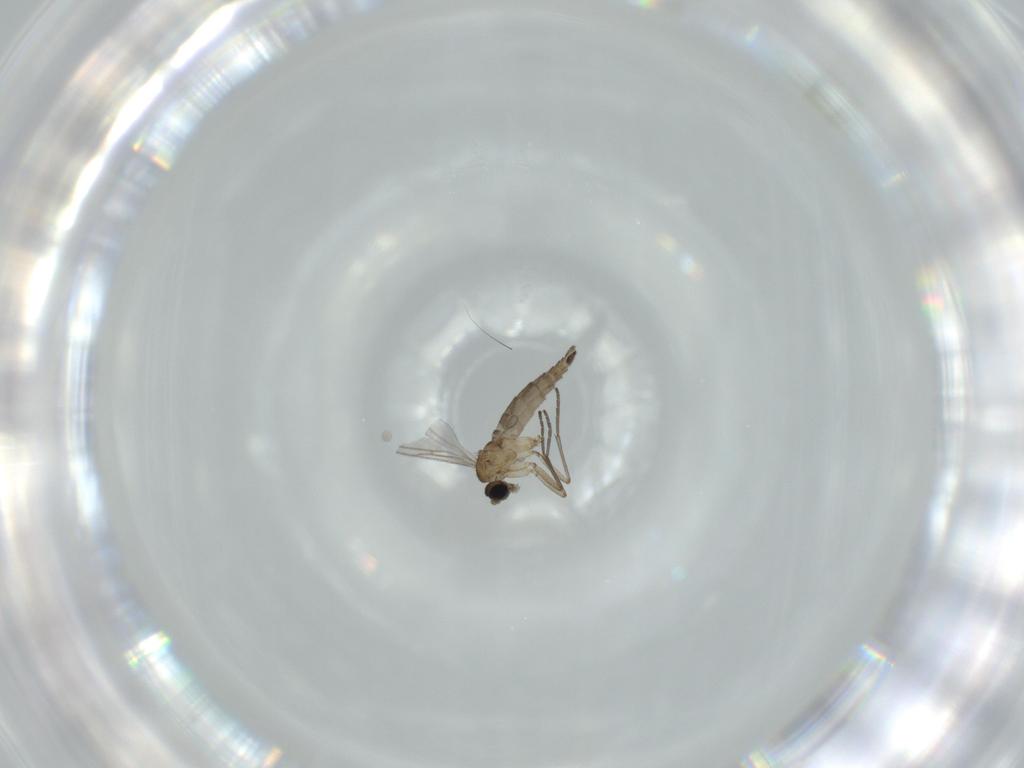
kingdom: Animalia
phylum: Arthropoda
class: Insecta
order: Diptera
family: Sciaridae
